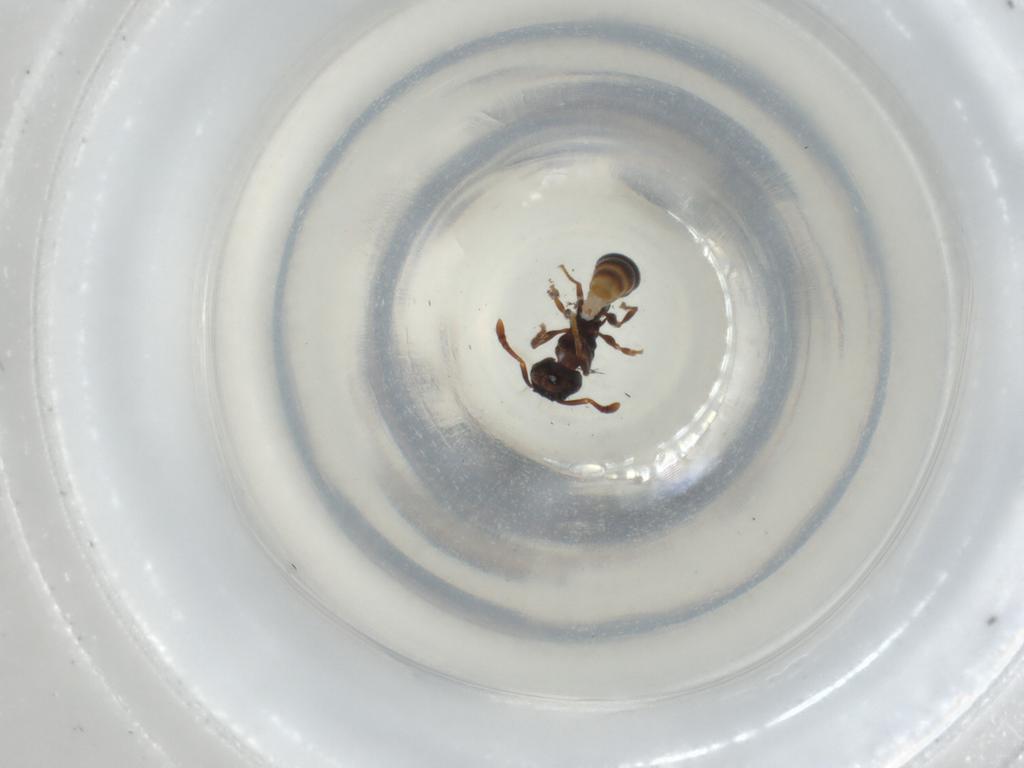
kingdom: Animalia
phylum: Arthropoda
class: Insecta
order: Hymenoptera
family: Formicidae
